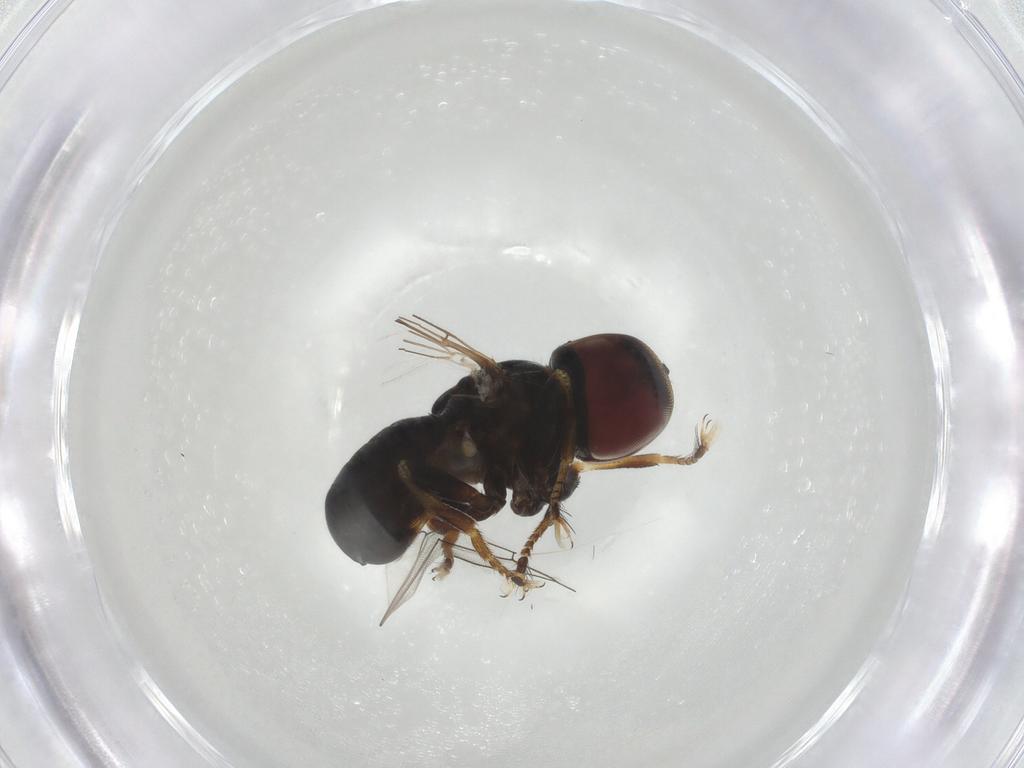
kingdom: Animalia
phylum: Arthropoda
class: Insecta
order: Diptera
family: Pipunculidae
